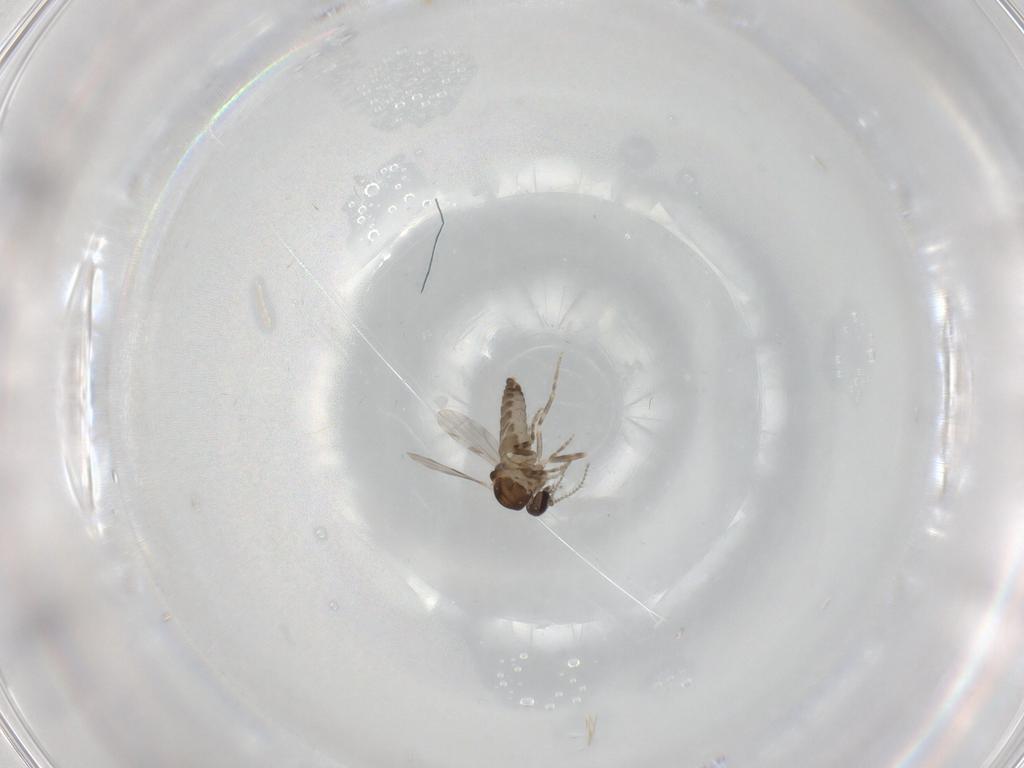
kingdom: Animalia
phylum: Arthropoda
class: Insecta
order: Diptera
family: Ceratopogonidae
